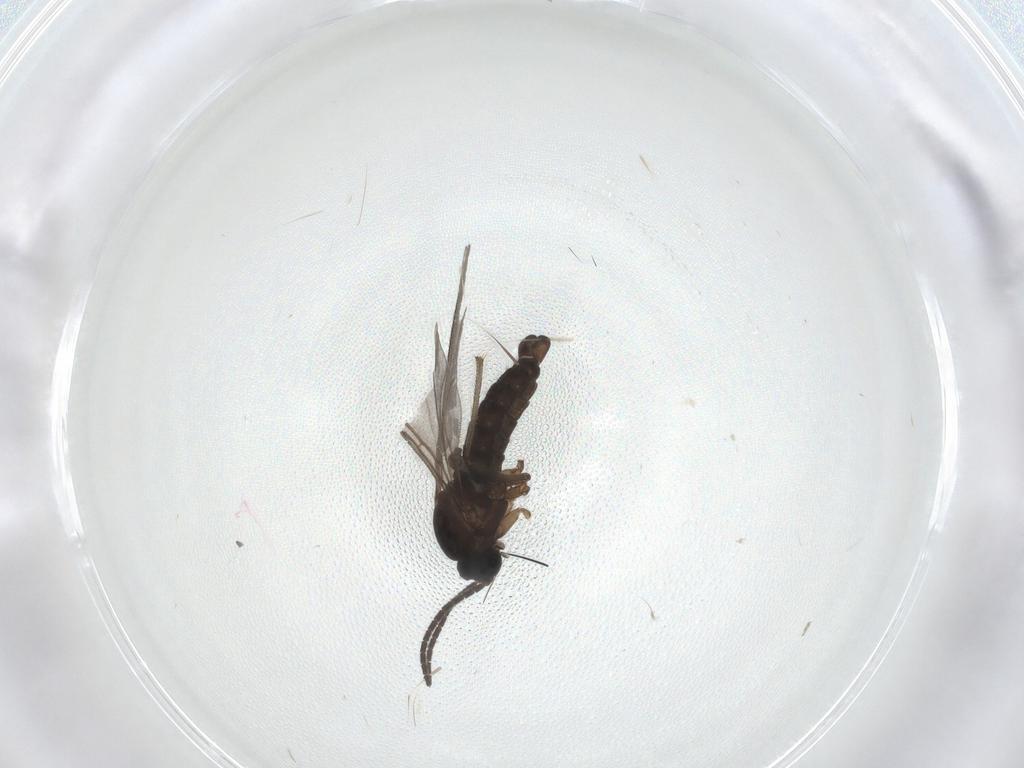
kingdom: Animalia
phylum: Arthropoda
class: Insecta
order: Diptera
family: Sciaridae
